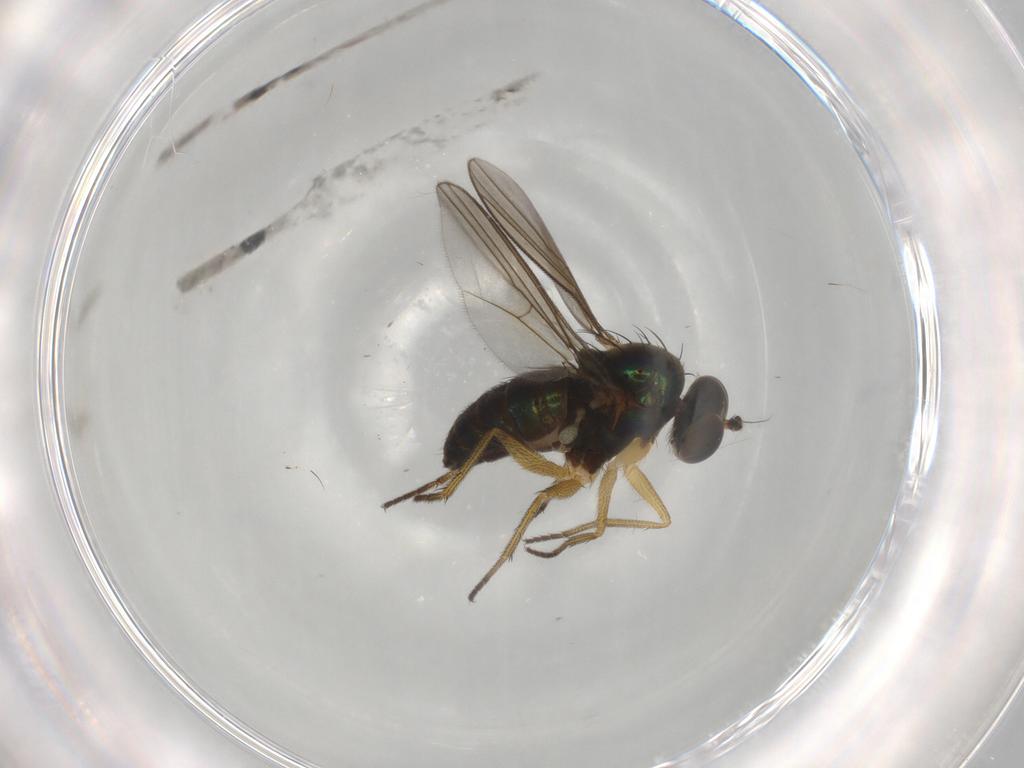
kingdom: Animalia
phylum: Arthropoda
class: Insecta
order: Diptera
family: Dolichopodidae
